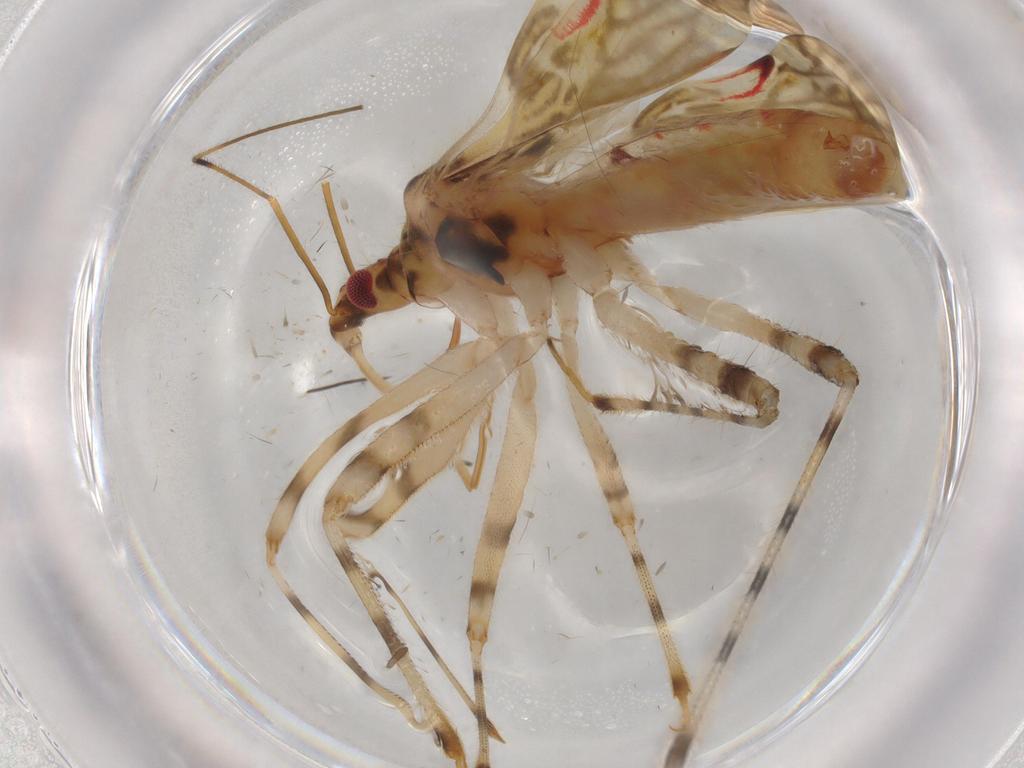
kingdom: Animalia
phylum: Arthropoda
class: Insecta
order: Hemiptera
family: Nabidae
